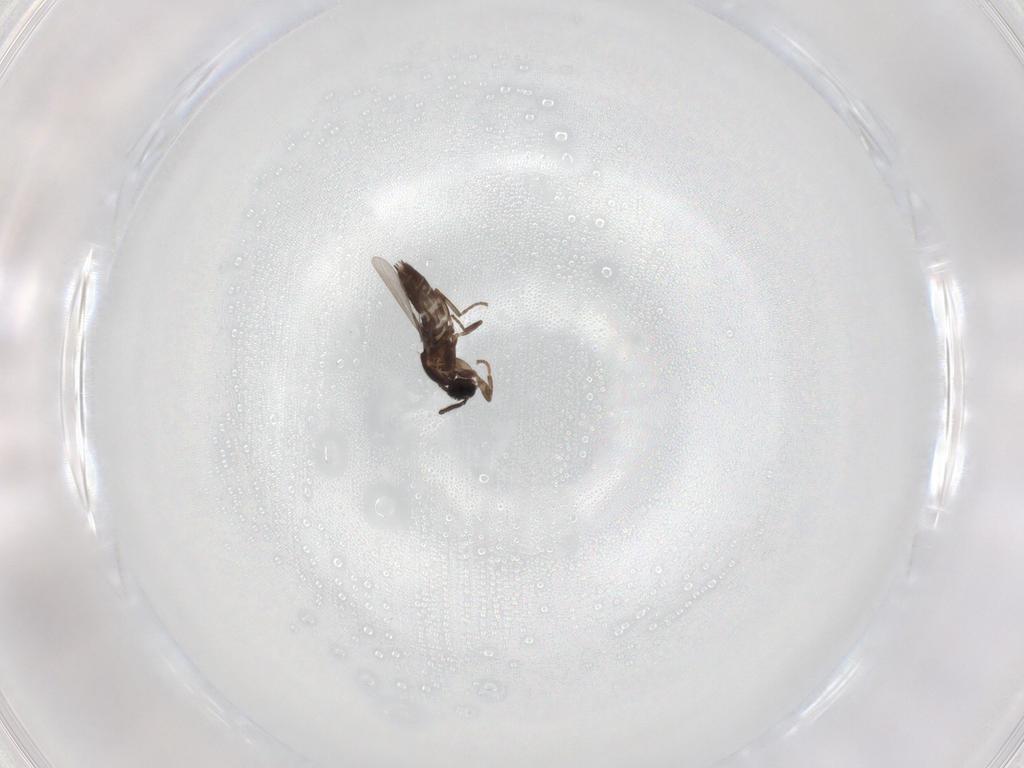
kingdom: Animalia
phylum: Arthropoda
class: Insecta
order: Diptera
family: Scatopsidae
